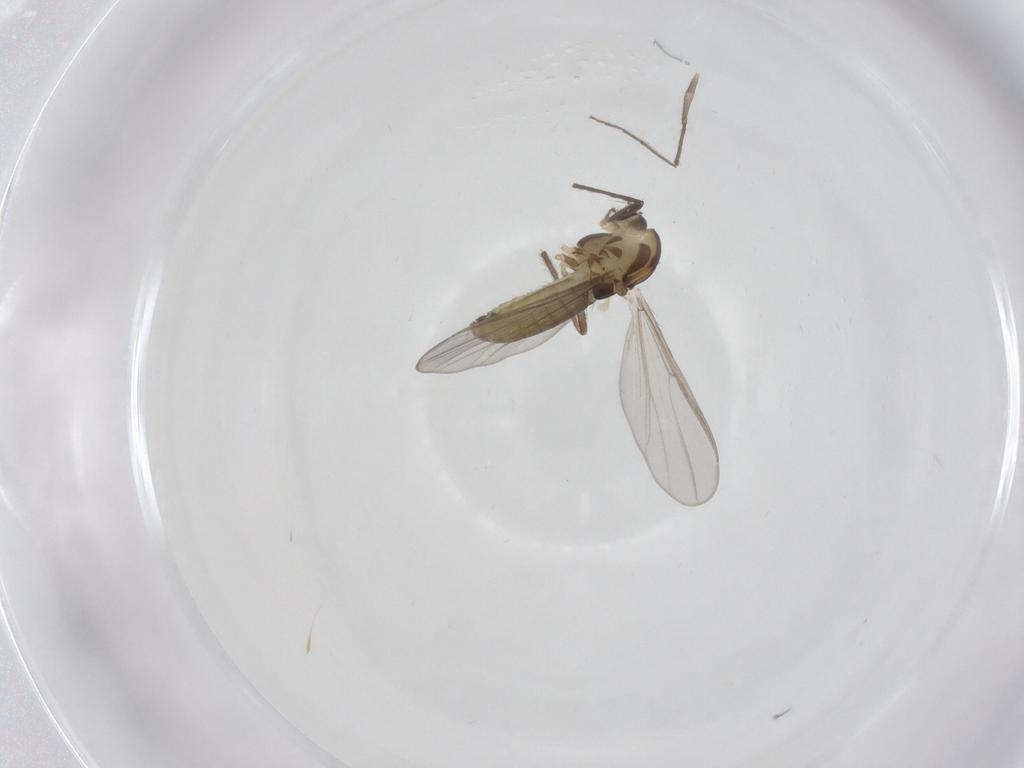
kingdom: Animalia
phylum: Arthropoda
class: Insecta
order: Diptera
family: Chironomidae
